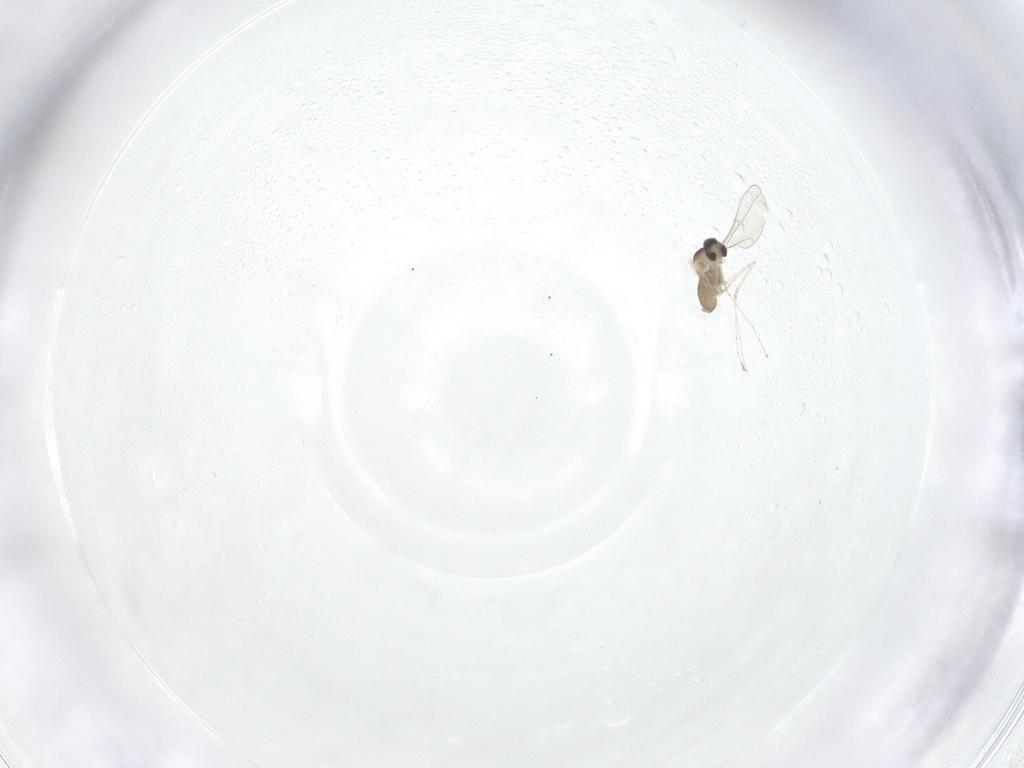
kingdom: Animalia
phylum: Arthropoda
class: Insecta
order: Diptera
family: Cecidomyiidae
